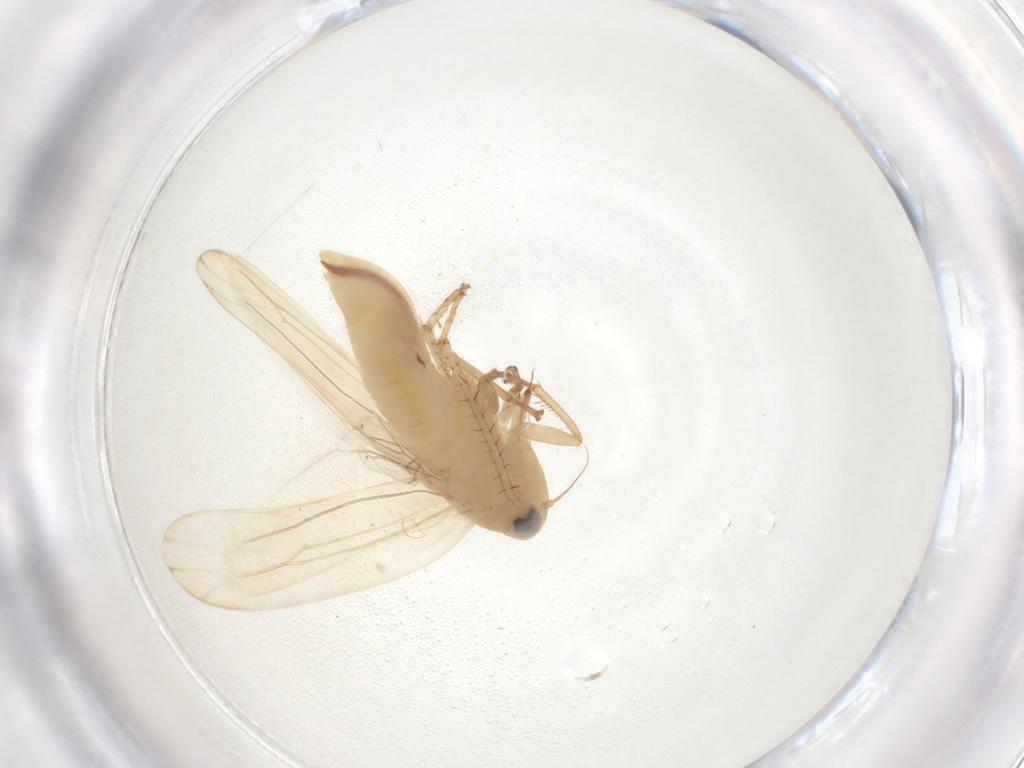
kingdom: Animalia
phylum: Arthropoda
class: Insecta
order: Hemiptera
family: Cicadellidae
